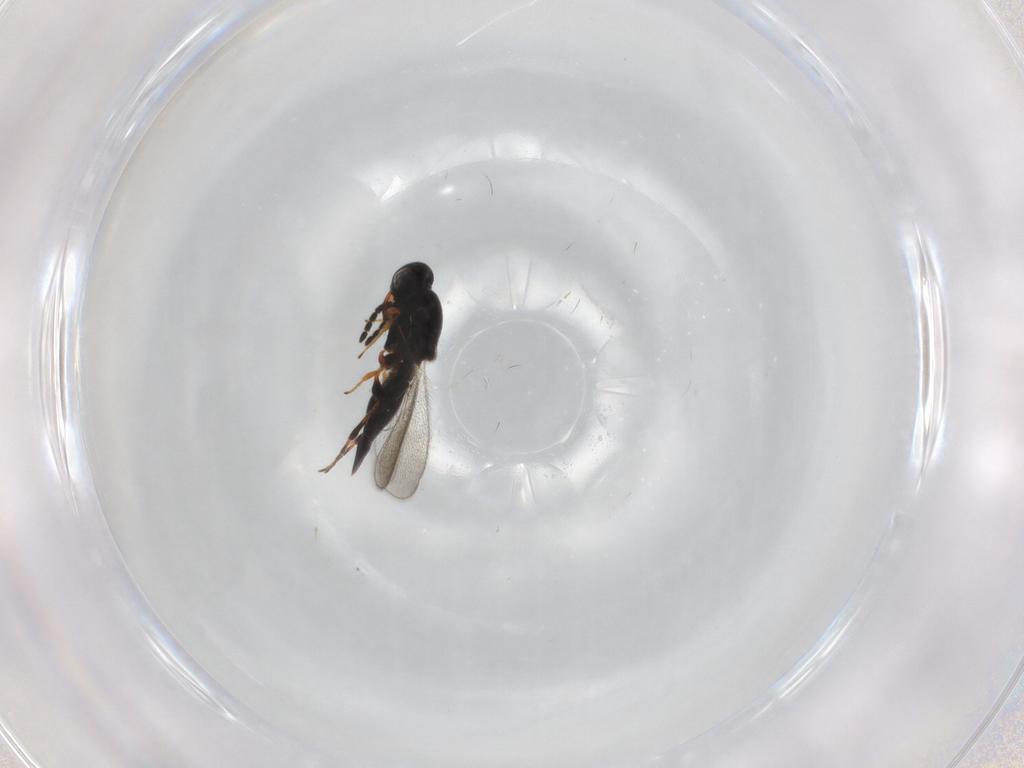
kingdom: Animalia
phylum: Arthropoda
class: Insecta
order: Hymenoptera
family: Platygastridae
